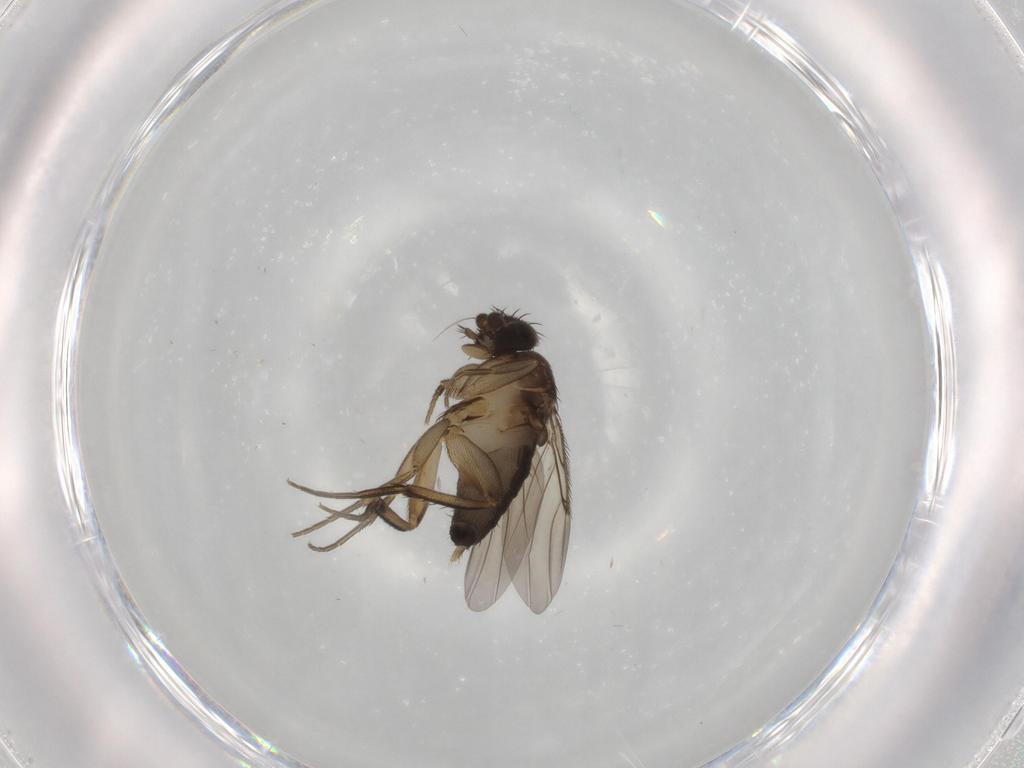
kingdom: Animalia
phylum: Arthropoda
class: Insecta
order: Diptera
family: Phoridae
